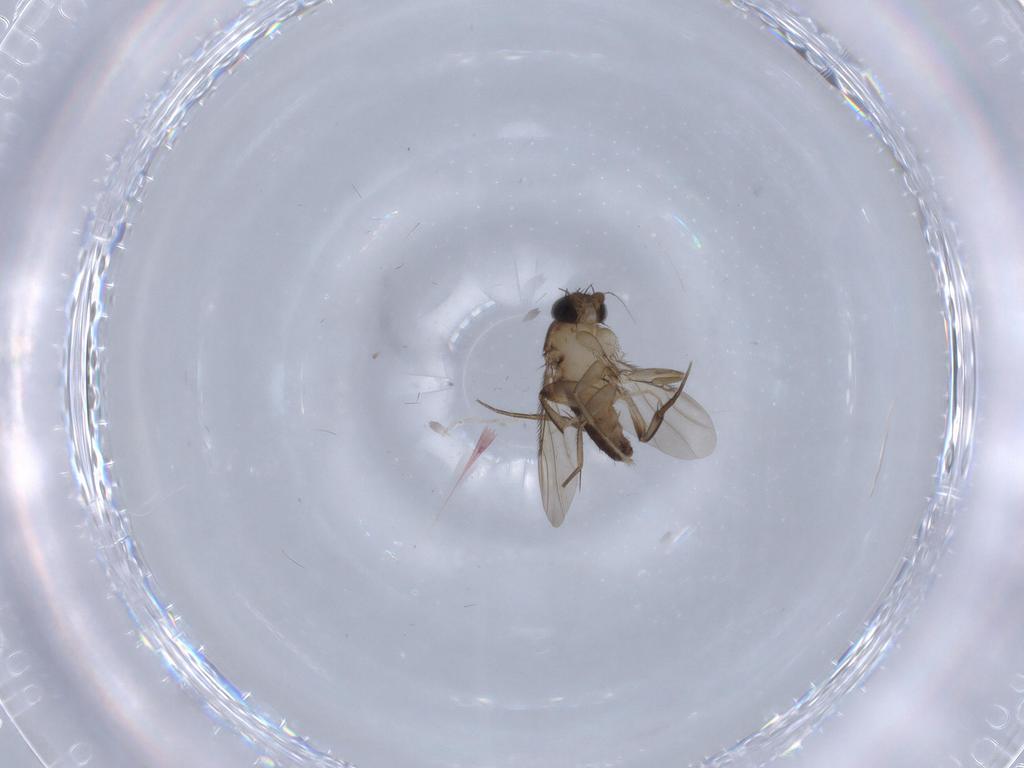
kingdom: Animalia
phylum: Arthropoda
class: Insecta
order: Diptera
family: Phoridae
